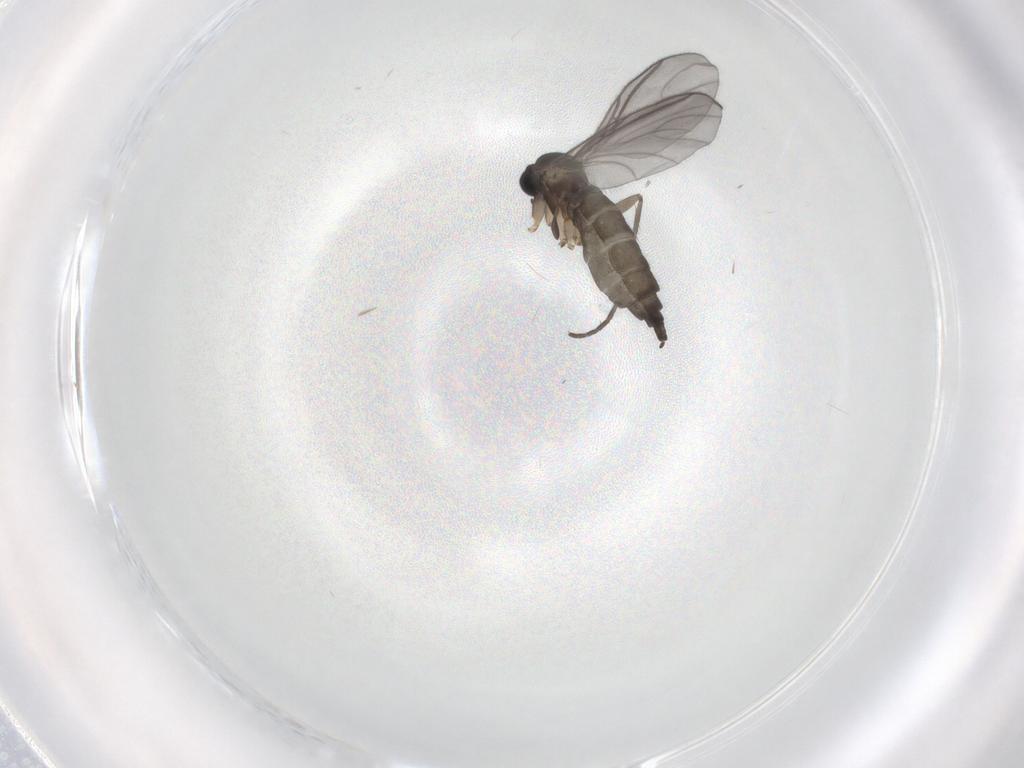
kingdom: Animalia
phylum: Arthropoda
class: Insecta
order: Diptera
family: Sciaridae
